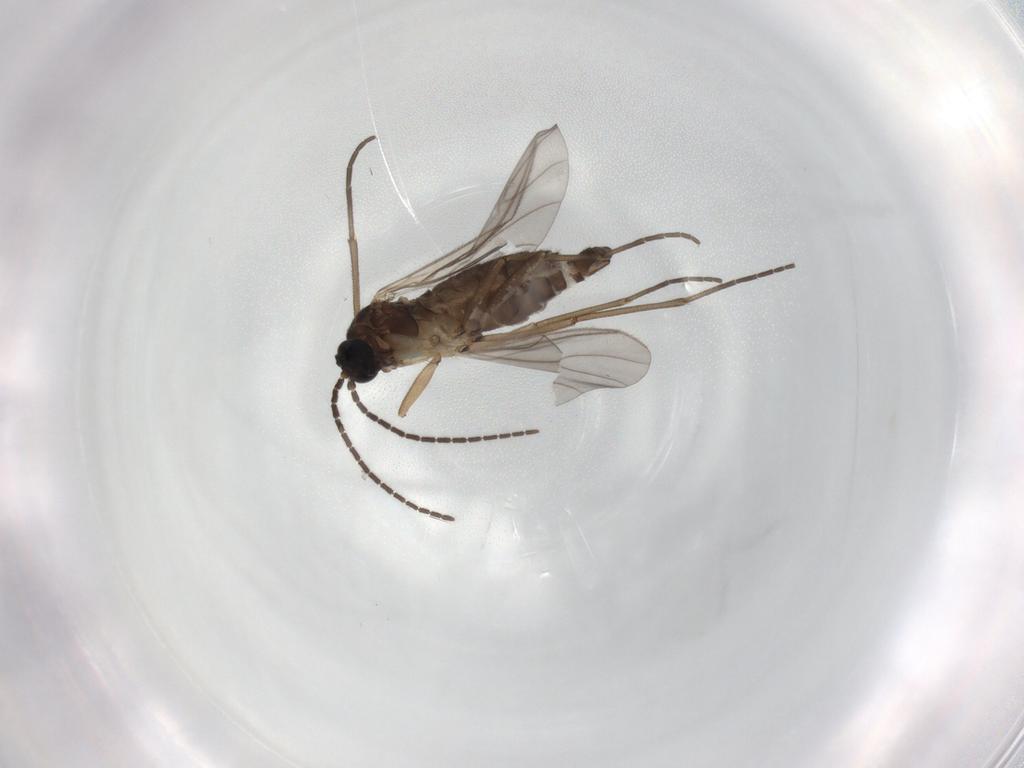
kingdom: Animalia
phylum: Arthropoda
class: Insecta
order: Diptera
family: Sciaridae
